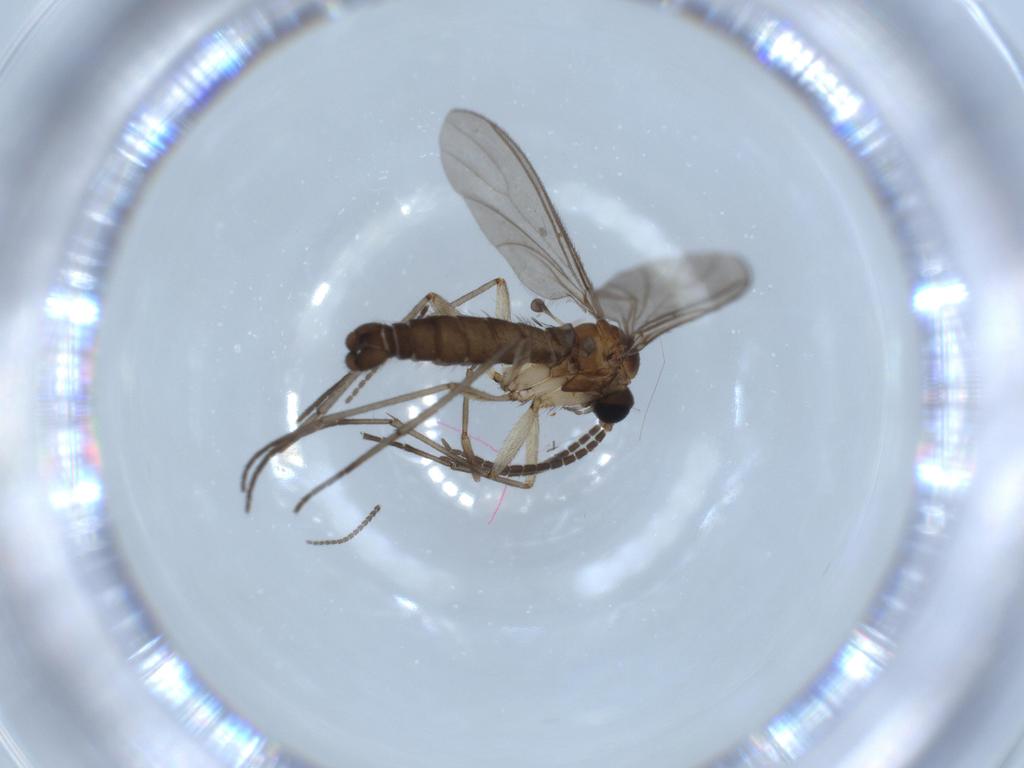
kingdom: Animalia
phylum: Arthropoda
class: Insecta
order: Diptera
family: Sciaridae
